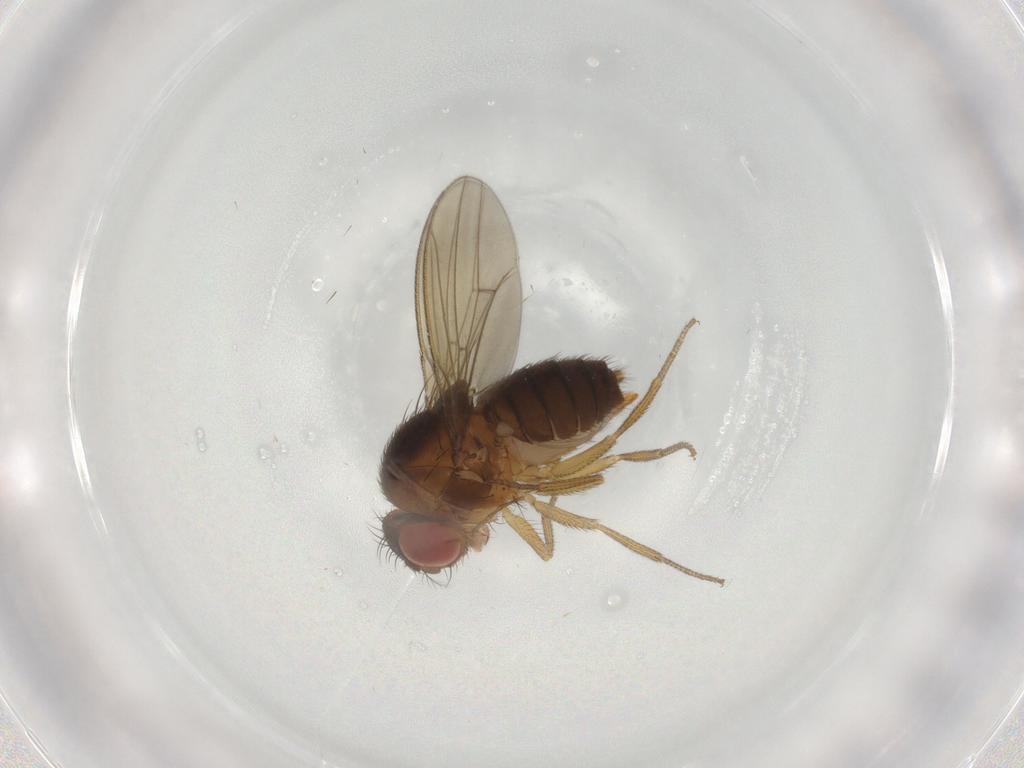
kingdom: Animalia
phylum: Arthropoda
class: Insecta
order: Diptera
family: Drosophilidae
